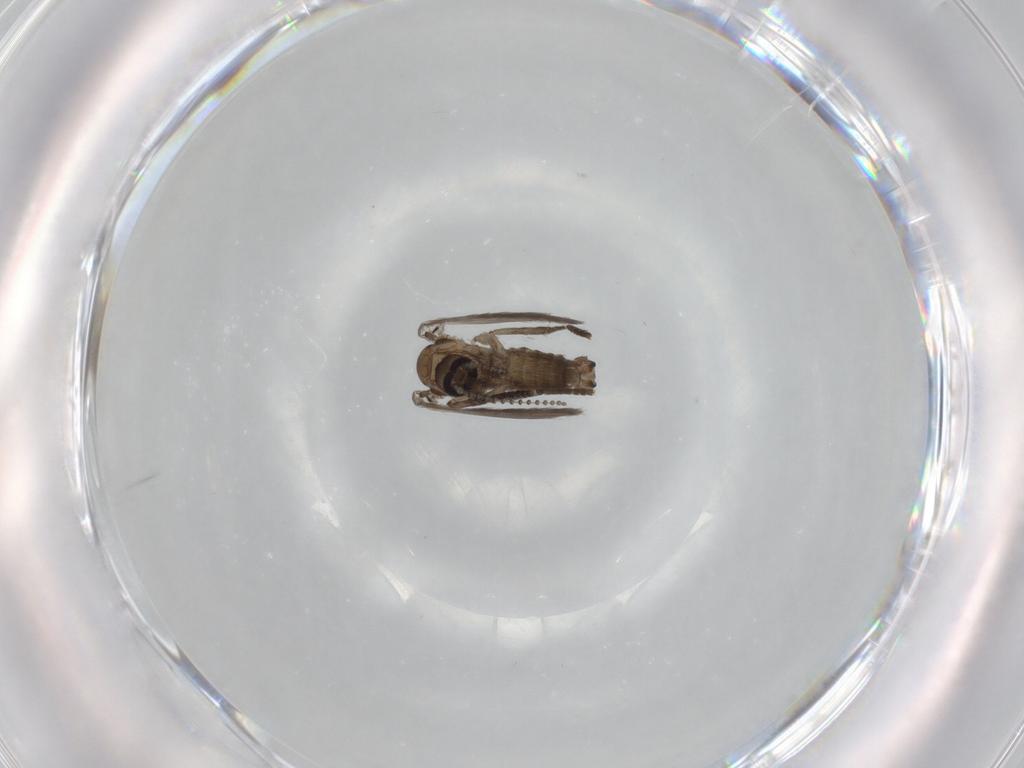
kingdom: Animalia
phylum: Arthropoda
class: Insecta
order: Diptera
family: Psychodidae
